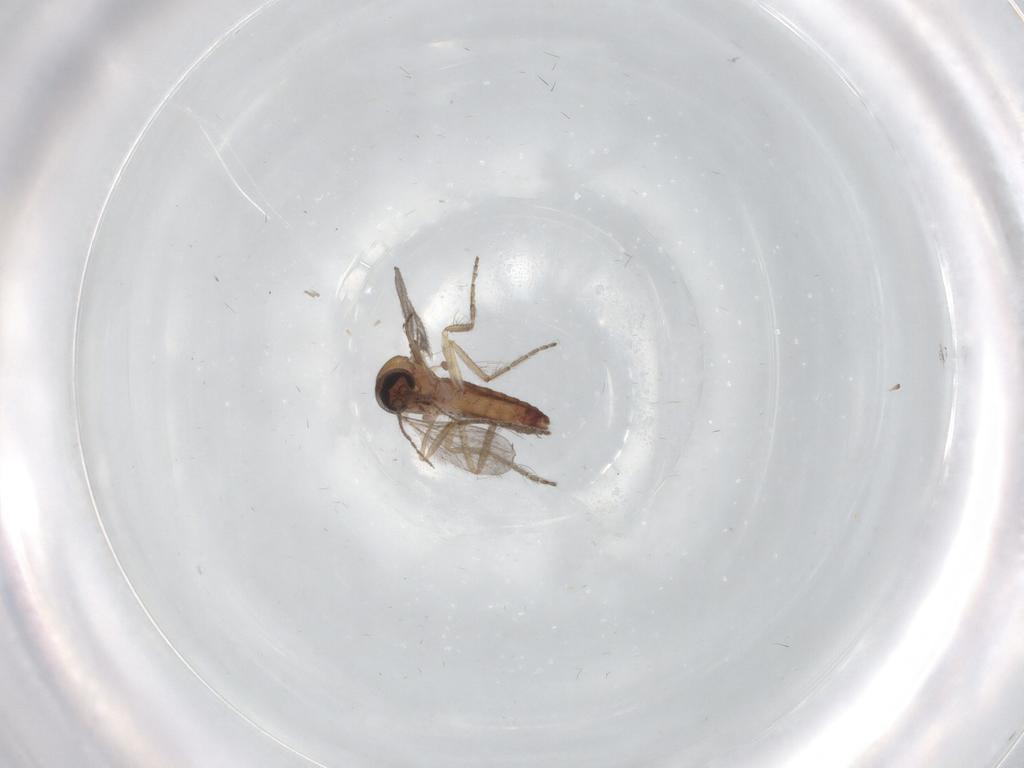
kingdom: Animalia
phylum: Arthropoda
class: Insecta
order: Diptera
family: Ceratopogonidae
